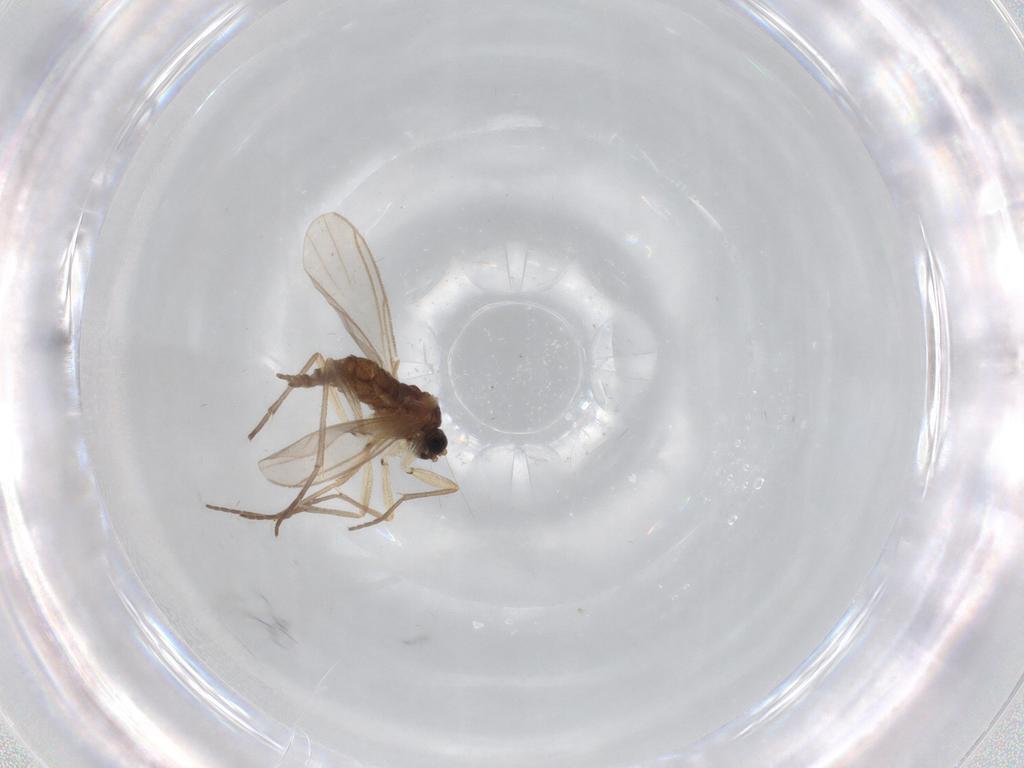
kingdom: Animalia
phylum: Arthropoda
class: Insecta
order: Diptera
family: Sciaridae
